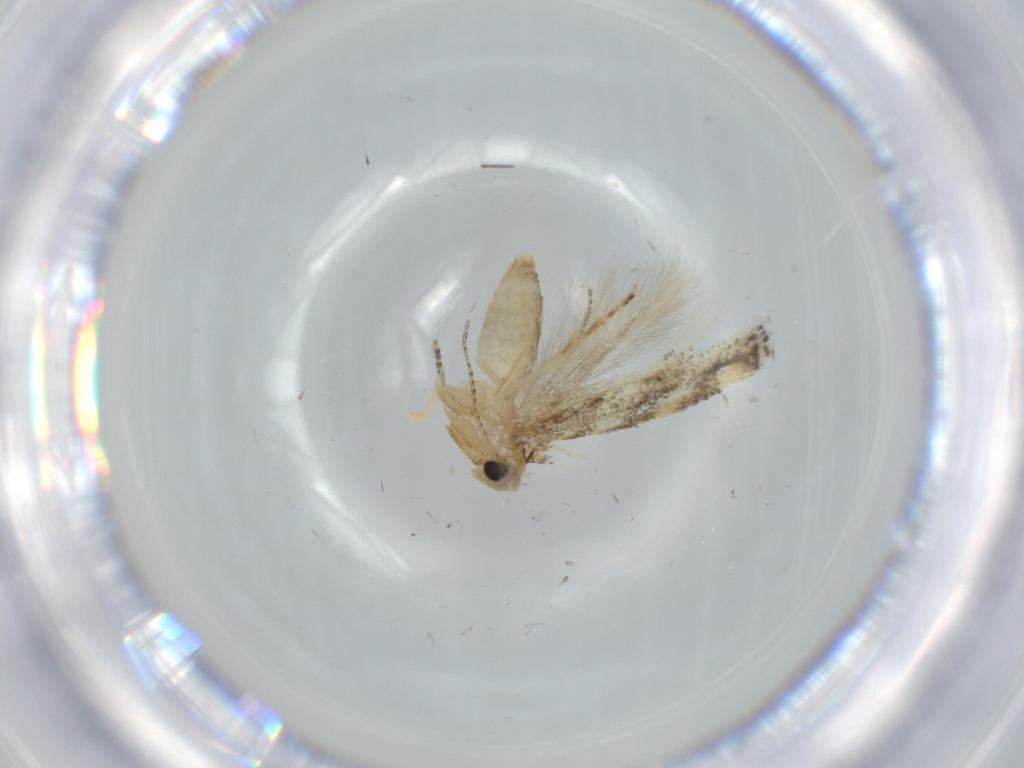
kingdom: Animalia
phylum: Arthropoda
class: Insecta
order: Lepidoptera
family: Bucculatricidae
